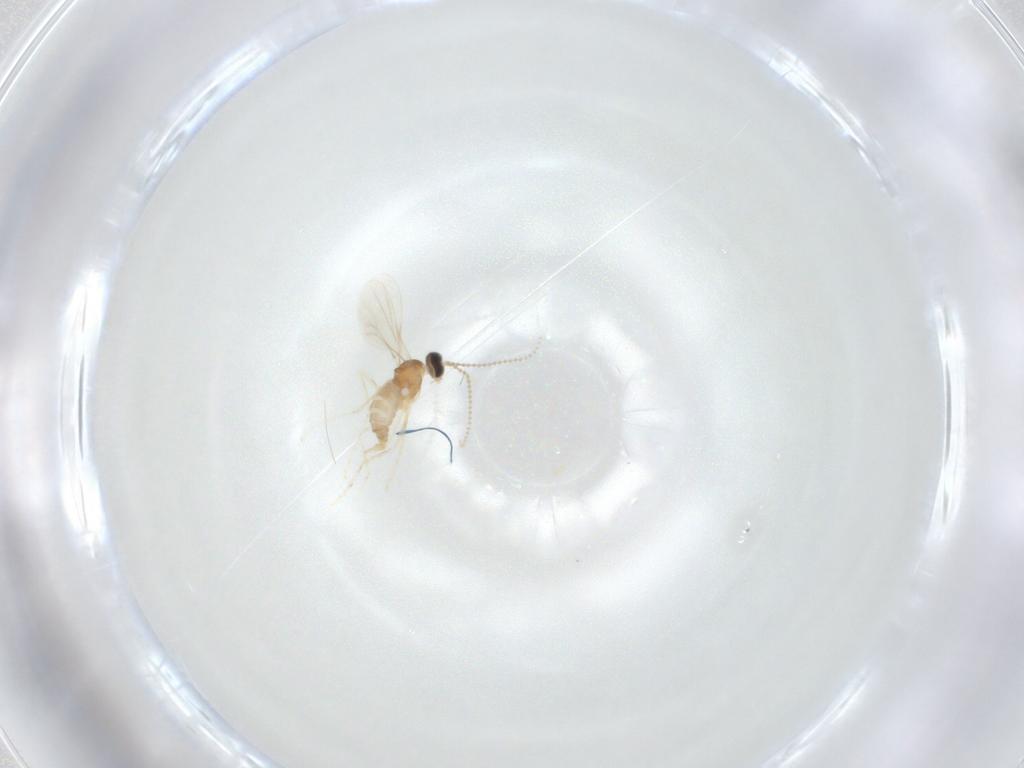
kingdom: Animalia
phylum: Arthropoda
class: Insecta
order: Diptera
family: Cecidomyiidae
